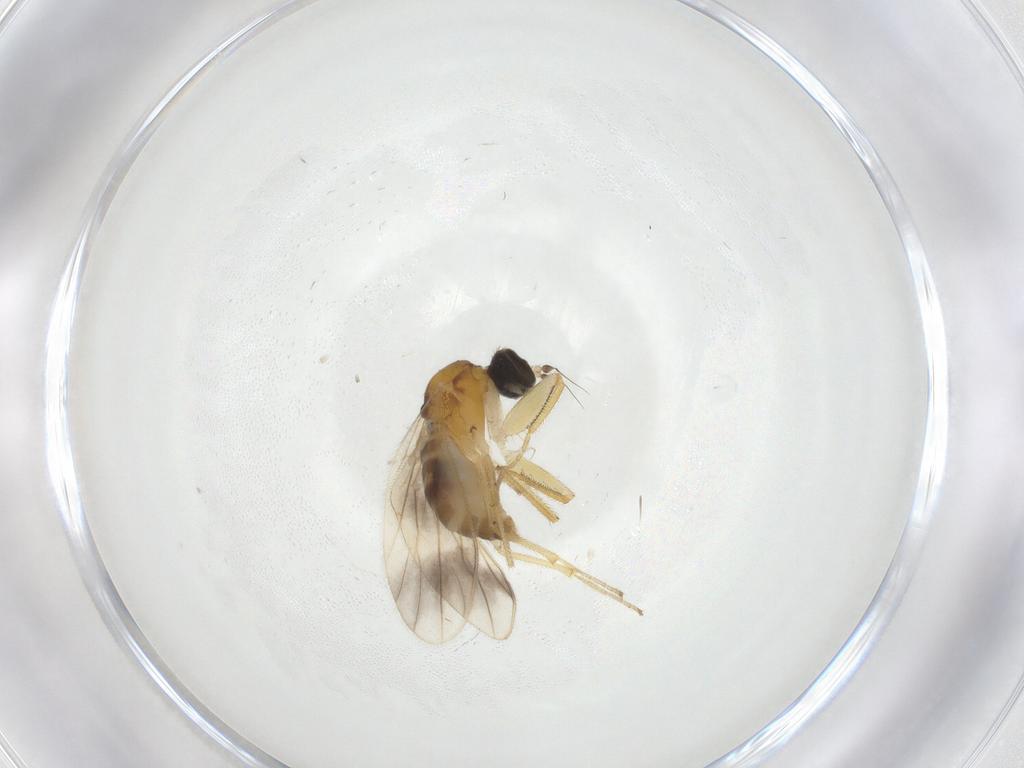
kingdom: Animalia
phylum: Arthropoda
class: Insecta
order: Diptera
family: Empididae
